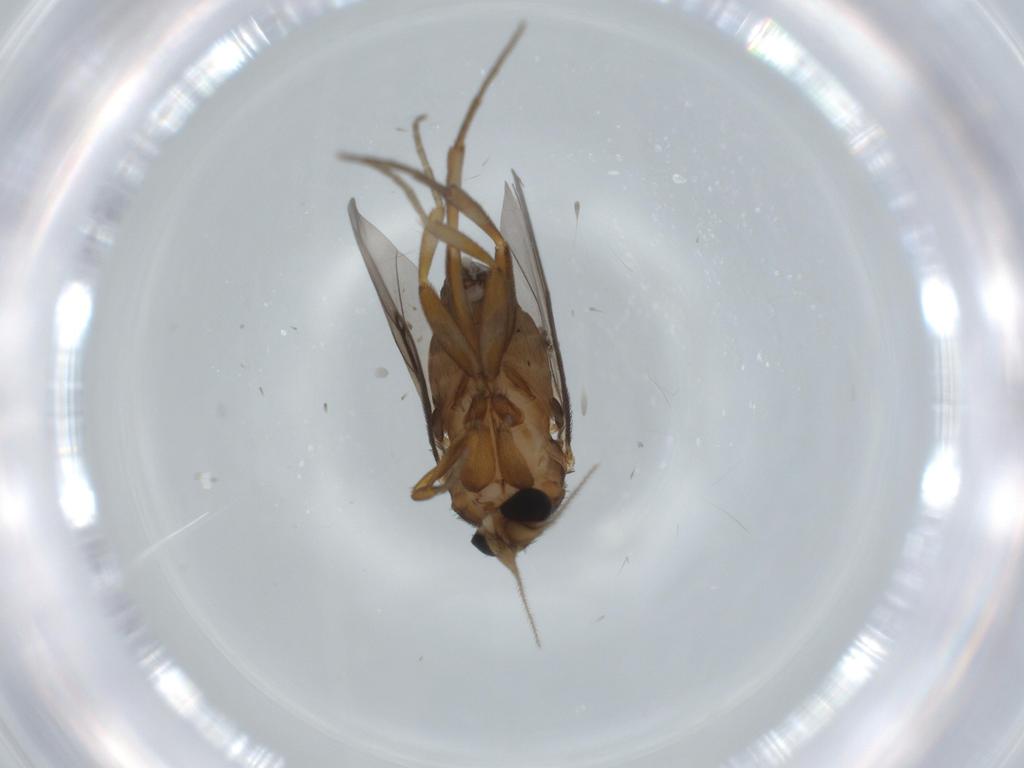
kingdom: Animalia
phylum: Arthropoda
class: Insecta
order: Diptera
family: Phoridae
